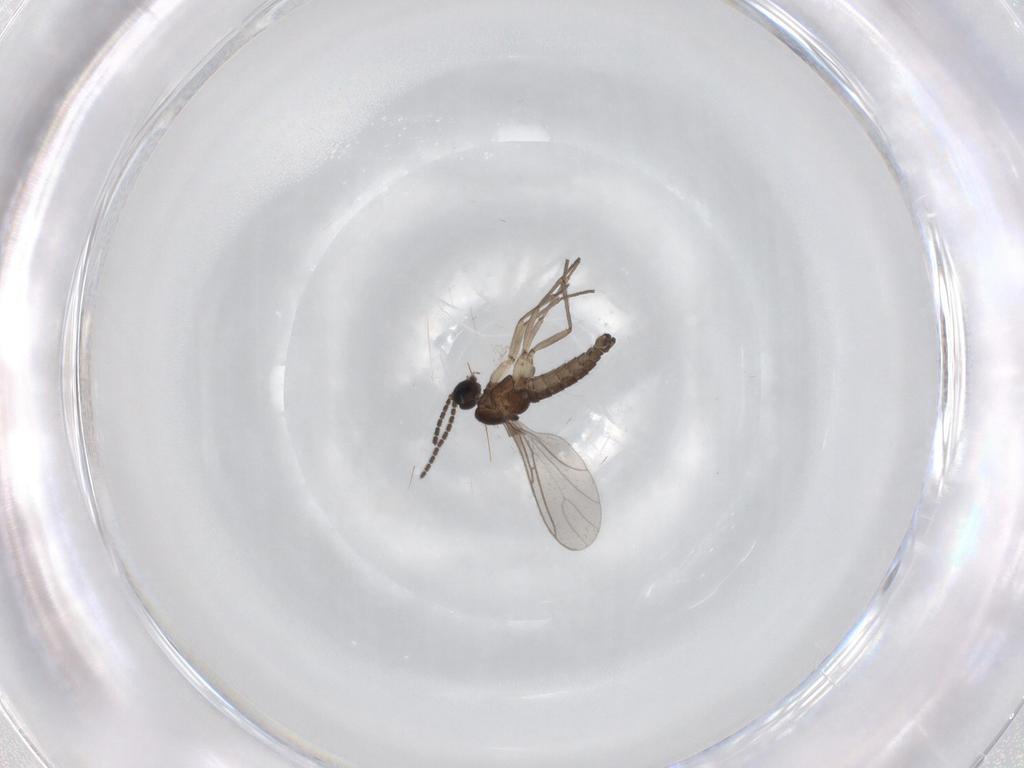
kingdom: Animalia
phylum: Arthropoda
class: Insecta
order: Diptera
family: Sciaridae
